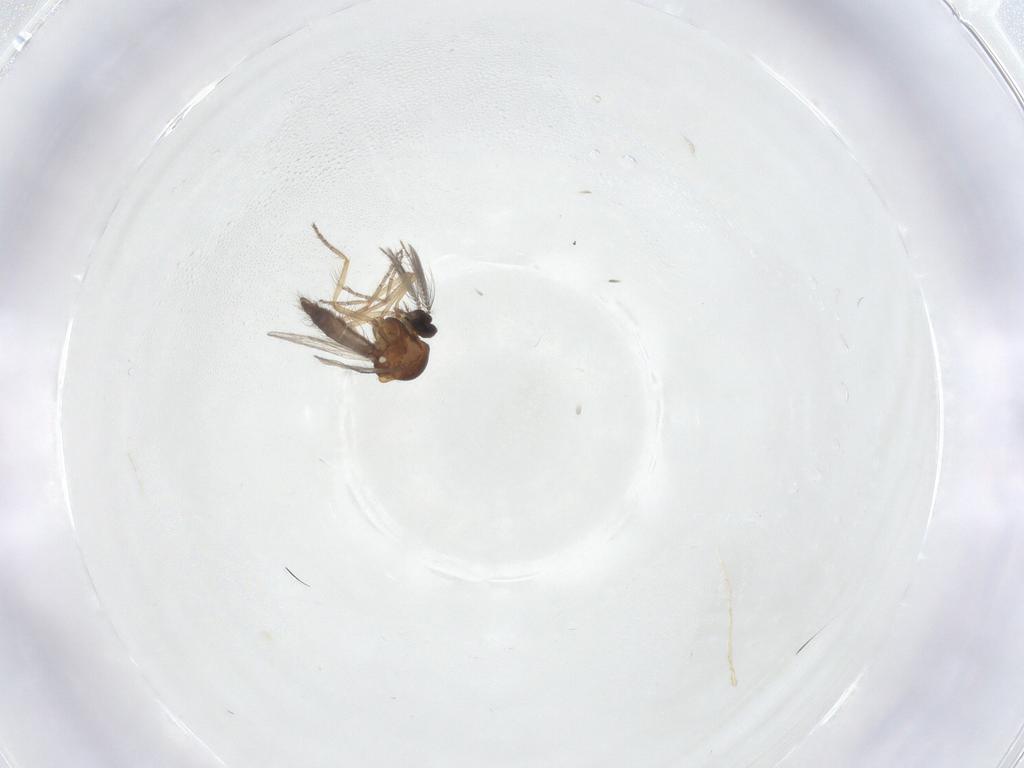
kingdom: Animalia
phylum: Arthropoda
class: Insecta
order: Diptera
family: Ceratopogonidae
